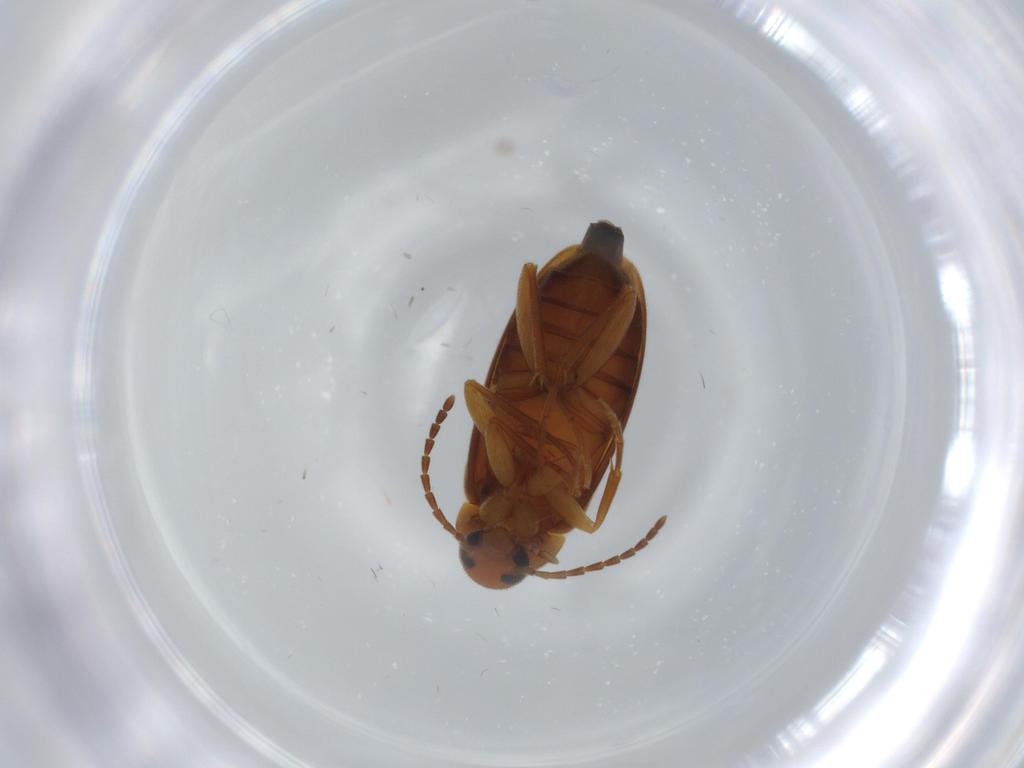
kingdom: Animalia
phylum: Arthropoda
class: Insecta
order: Coleoptera
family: Scraptiidae
